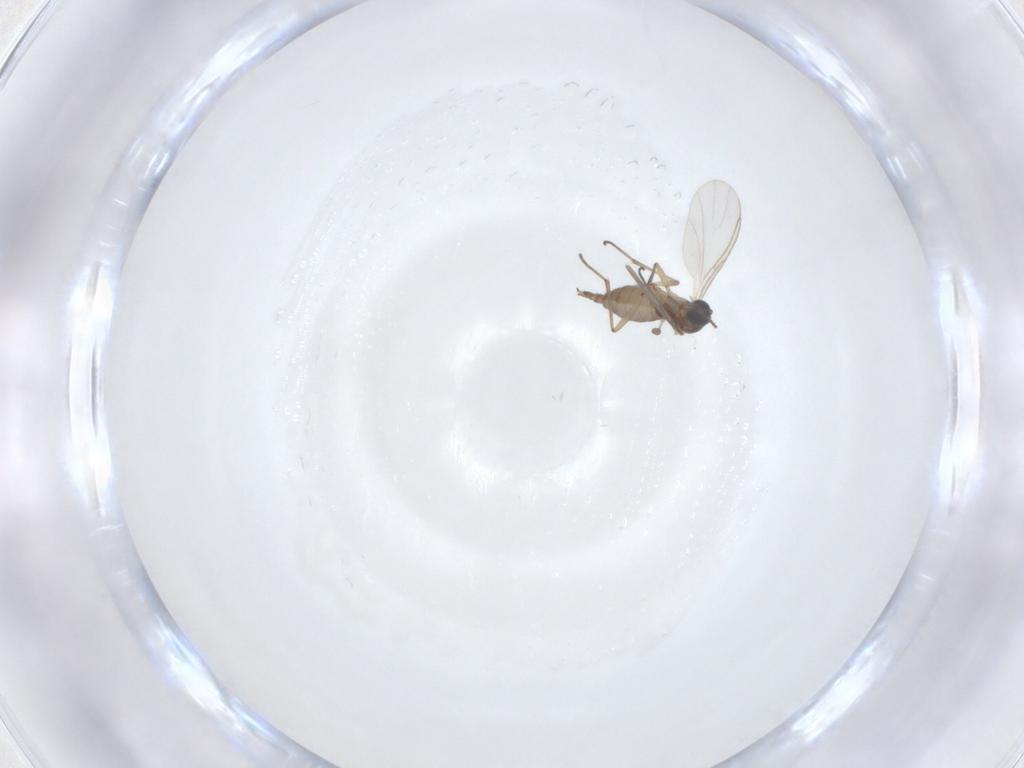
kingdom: Animalia
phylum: Arthropoda
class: Insecta
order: Diptera
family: Sciaridae
